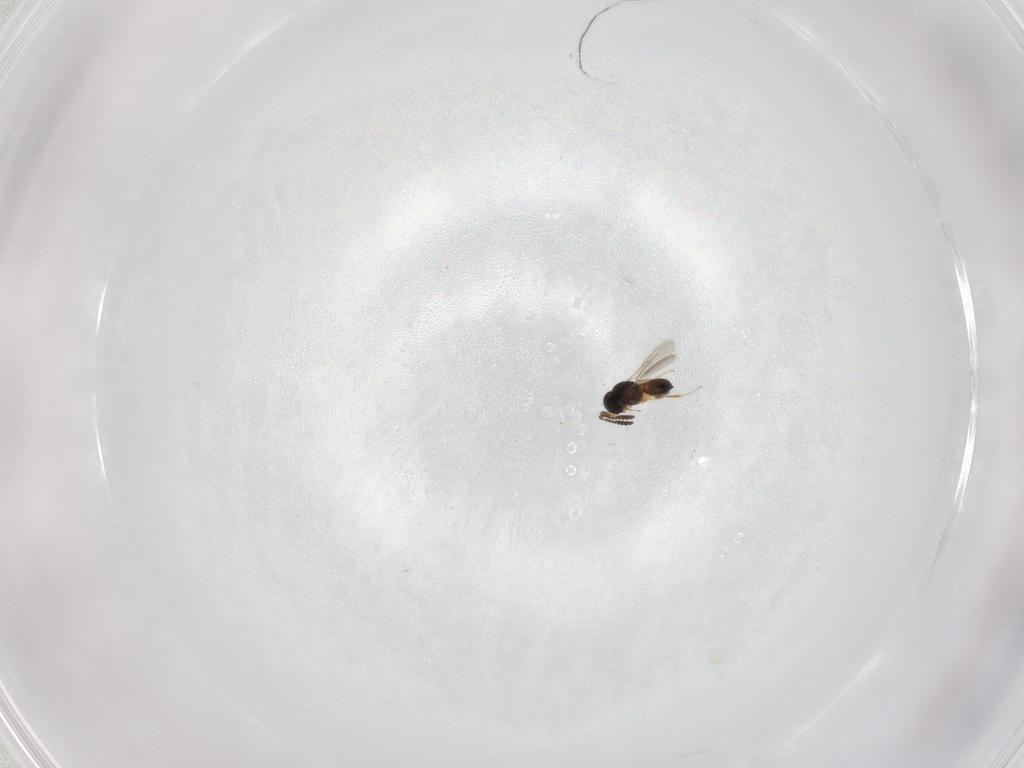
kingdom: Animalia
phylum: Arthropoda
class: Insecta
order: Hymenoptera
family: Scelionidae
